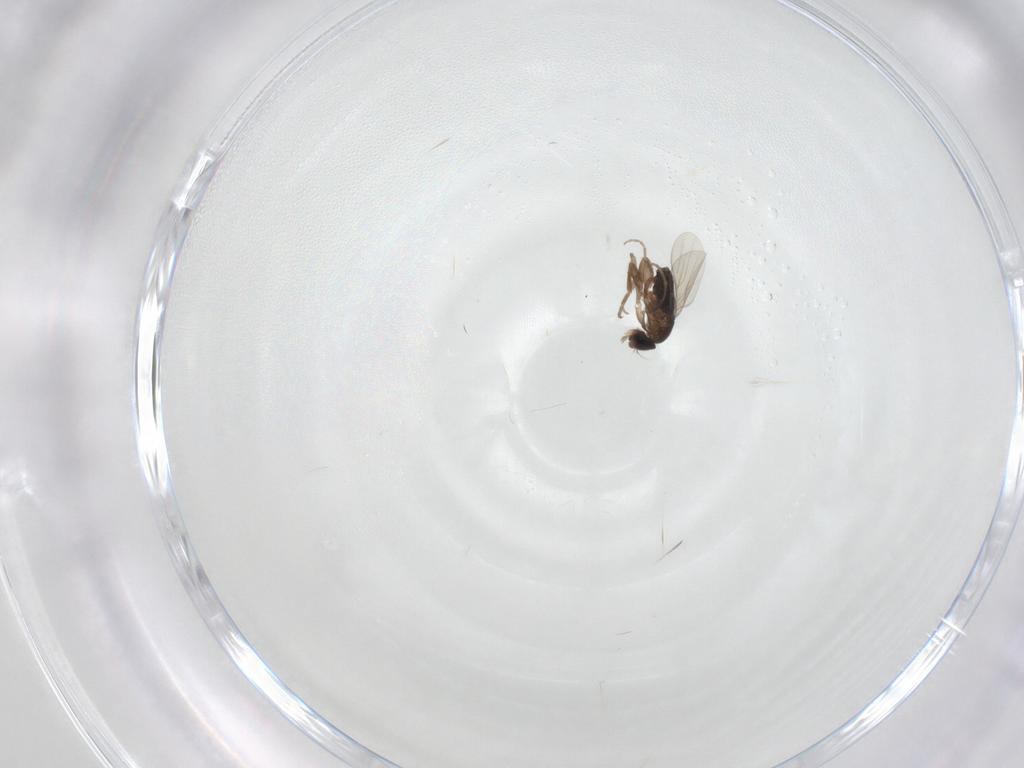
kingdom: Animalia
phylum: Arthropoda
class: Insecta
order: Diptera
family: Phoridae
